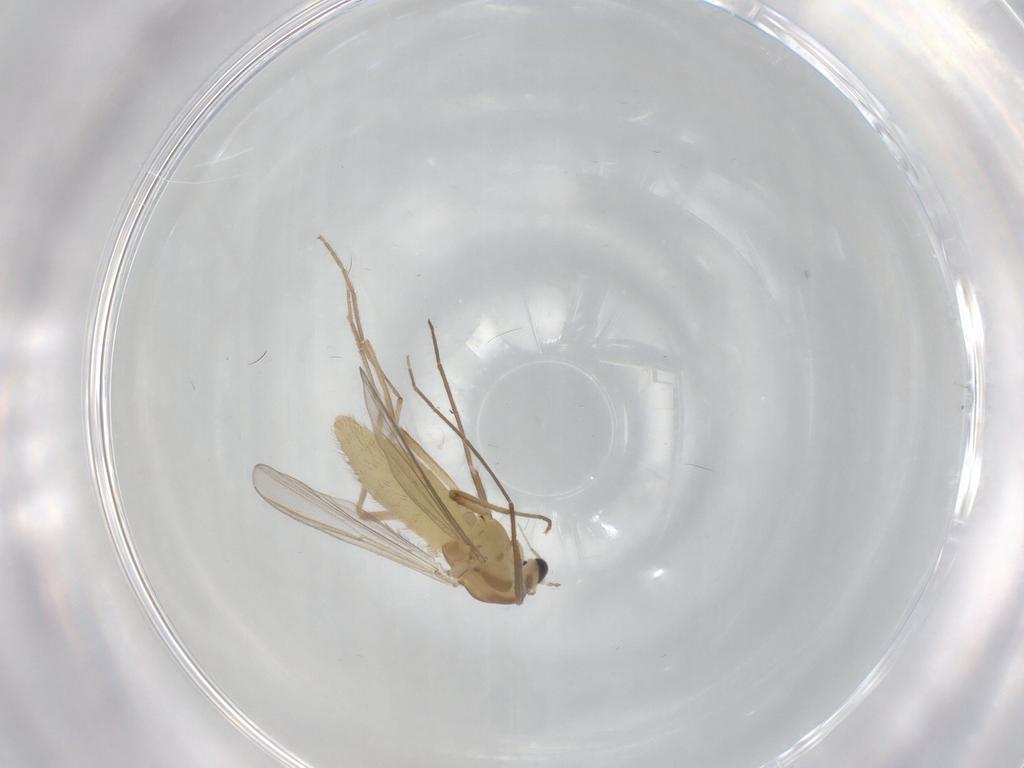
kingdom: Animalia
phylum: Arthropoda
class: Insecta
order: Diptera
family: Chironomidae
